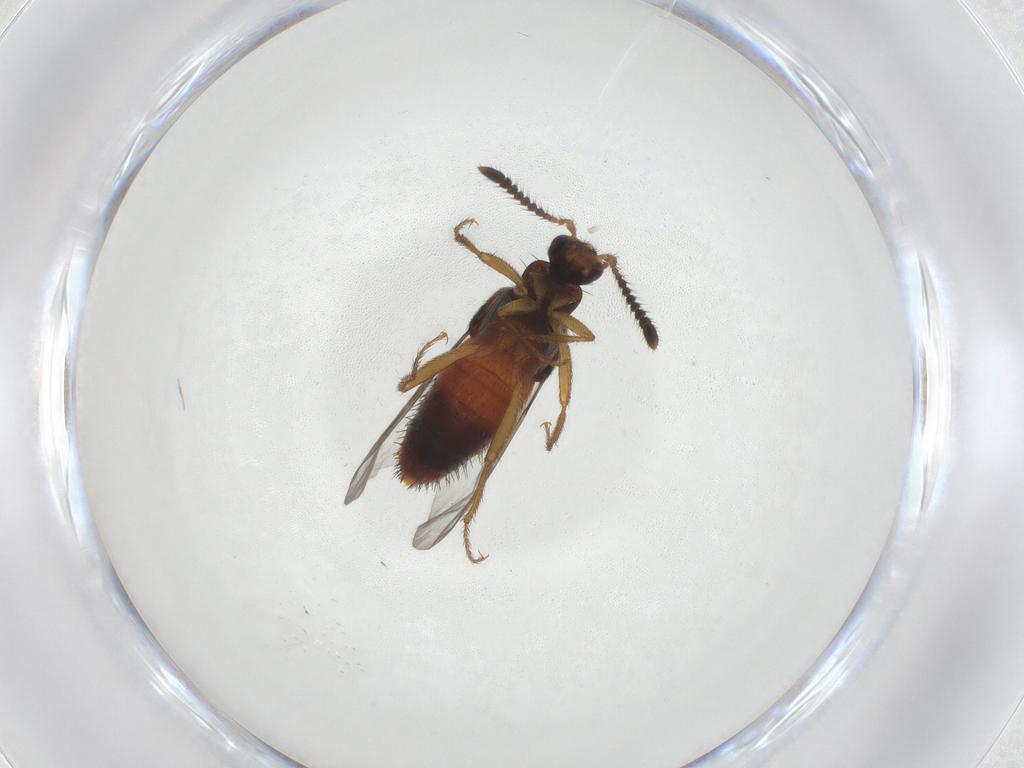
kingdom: Animalia
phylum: Arthropoda
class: Insecta
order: Coleoptera
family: Staphylinidae
